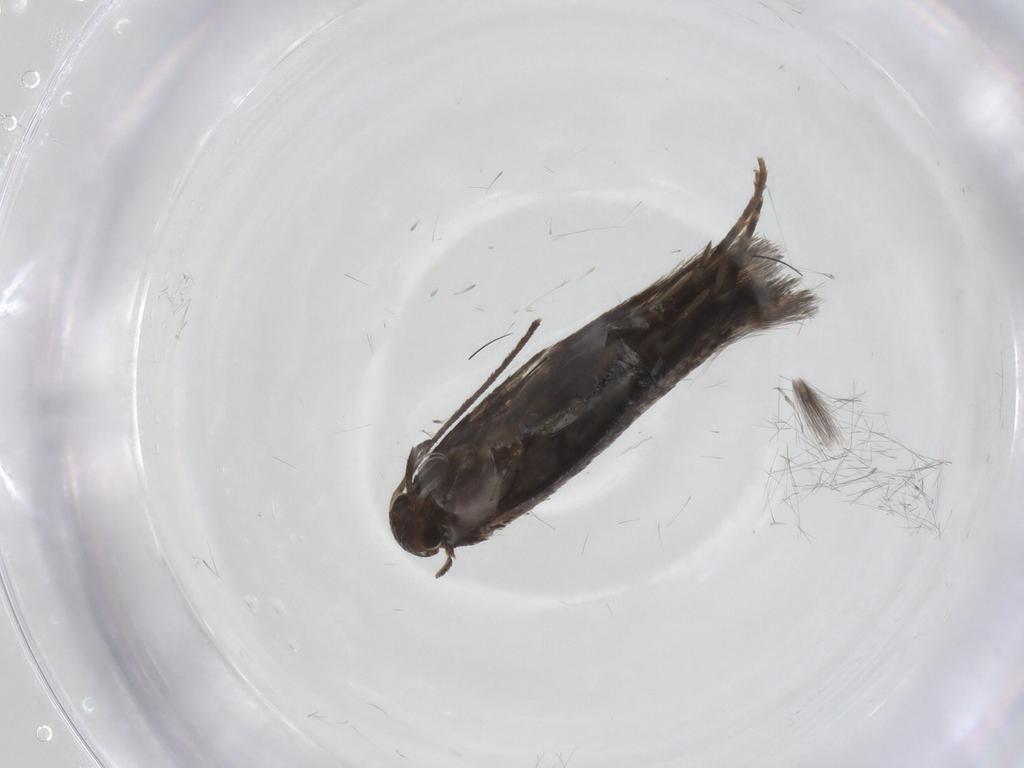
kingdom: Animalia
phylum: Arthropoda
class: Insecta
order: Lepidoptera
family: Elachistidae
